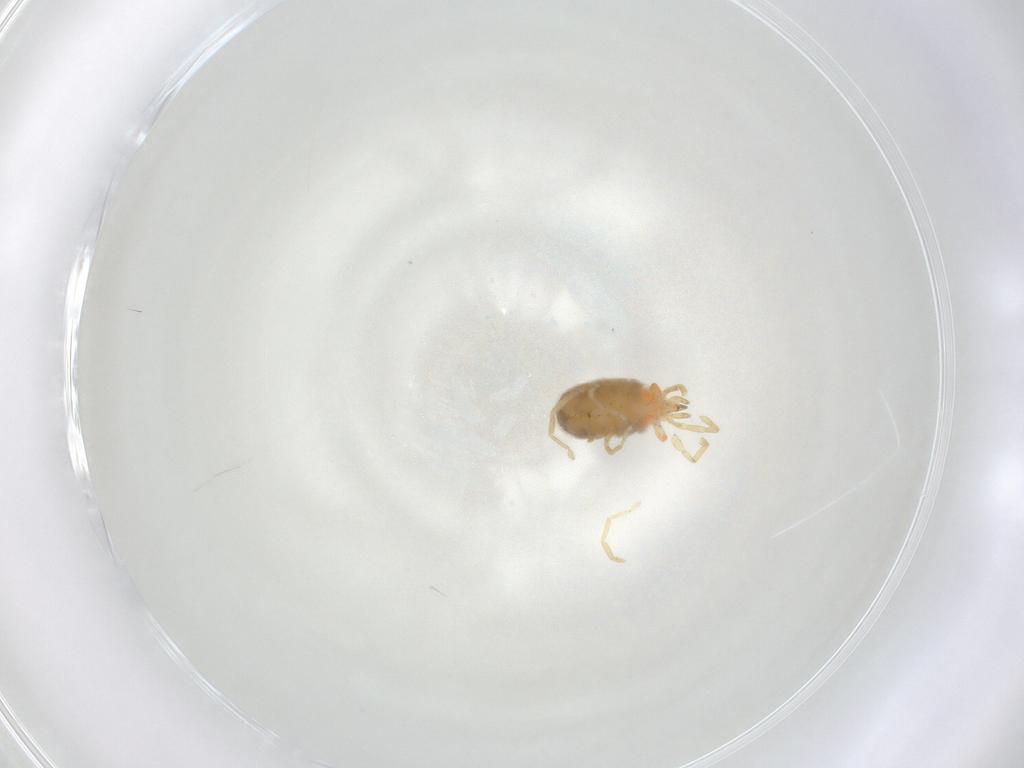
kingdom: Animalia
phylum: Arthropoda
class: Arachnida
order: Trombidiformes
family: Erythraeidae
